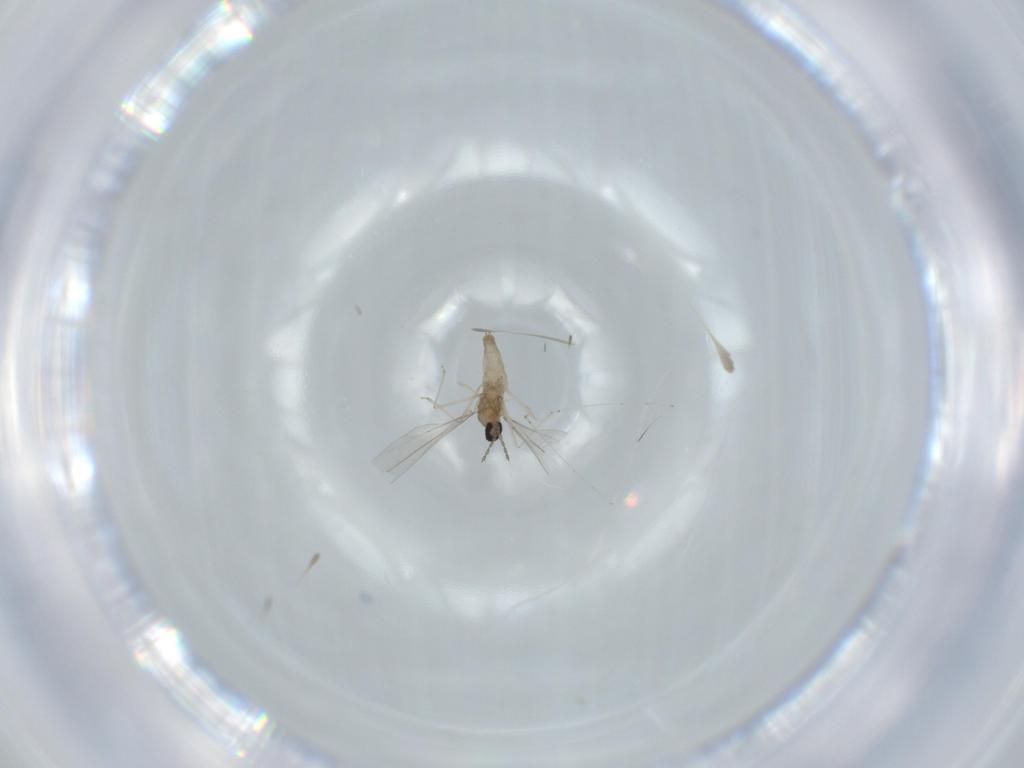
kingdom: Animalia
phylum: Arthropoda
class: Insecta
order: Diptera
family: Cecidomyiidae
